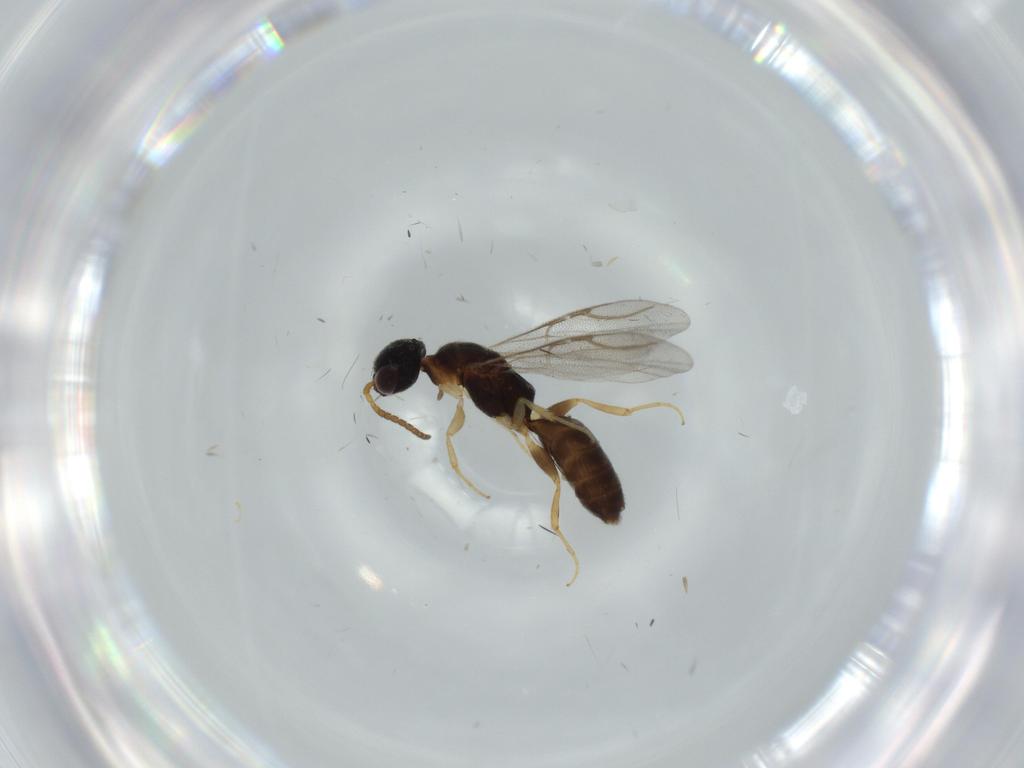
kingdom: Animalia
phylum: Arthropoda
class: Insecta
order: Hymenoptera
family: Bethylidae
